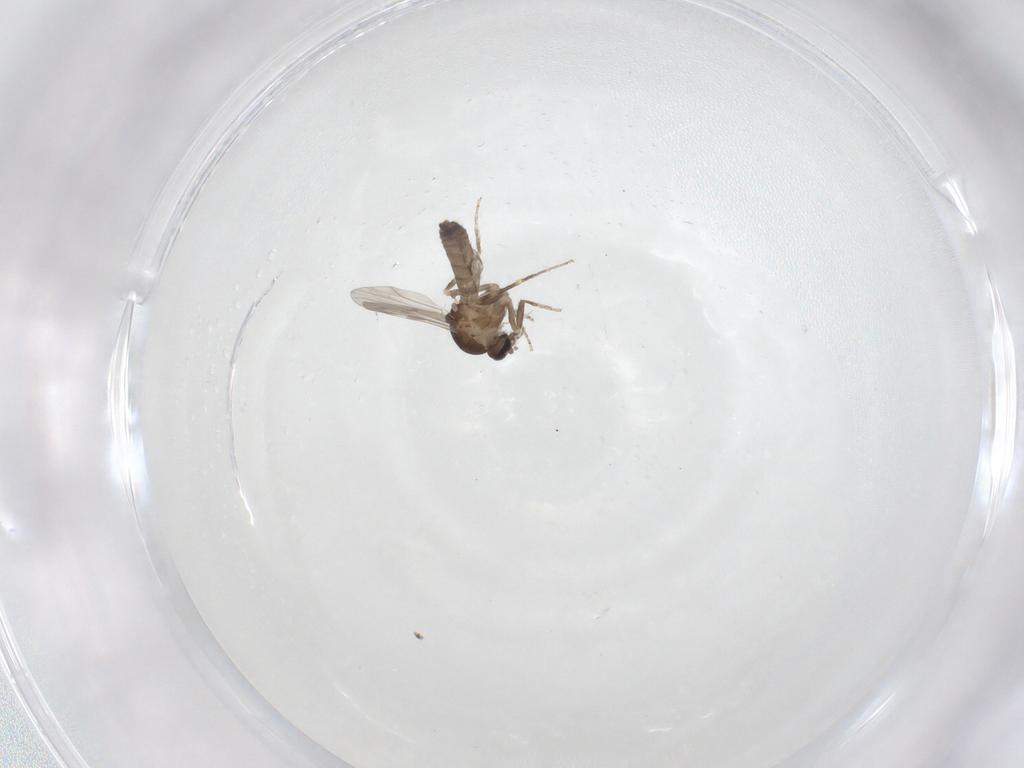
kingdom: Animalia
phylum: Arthropoda
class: Insecta
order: Diptera
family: Ceratopogonidae
